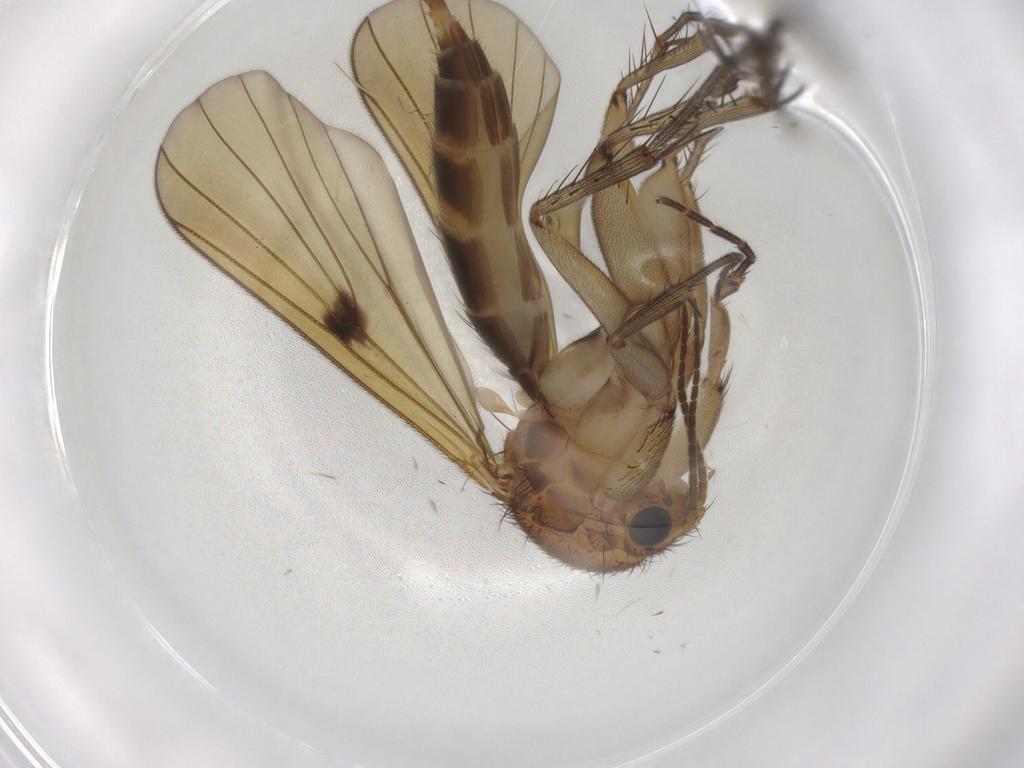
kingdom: Animalia
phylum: Arthropoda
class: Insecta
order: Diptera
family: Mycetophilidae
